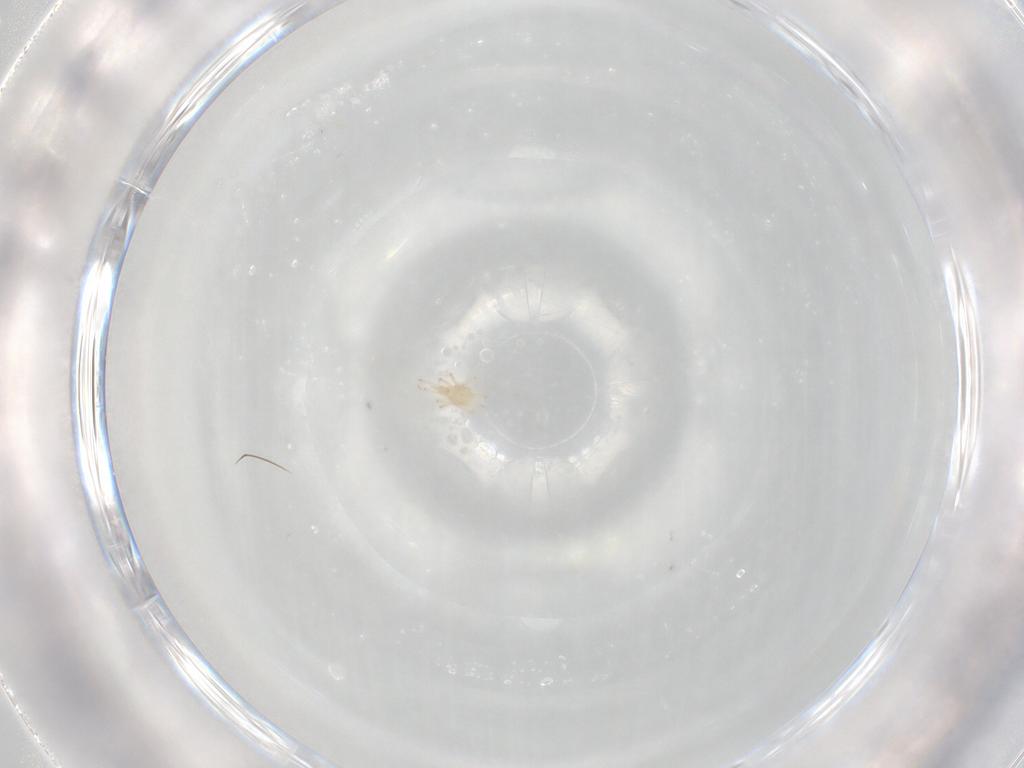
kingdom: Animalia
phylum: Arthropoda
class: Arachnida
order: Trombidiformes
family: Cunaxidae
